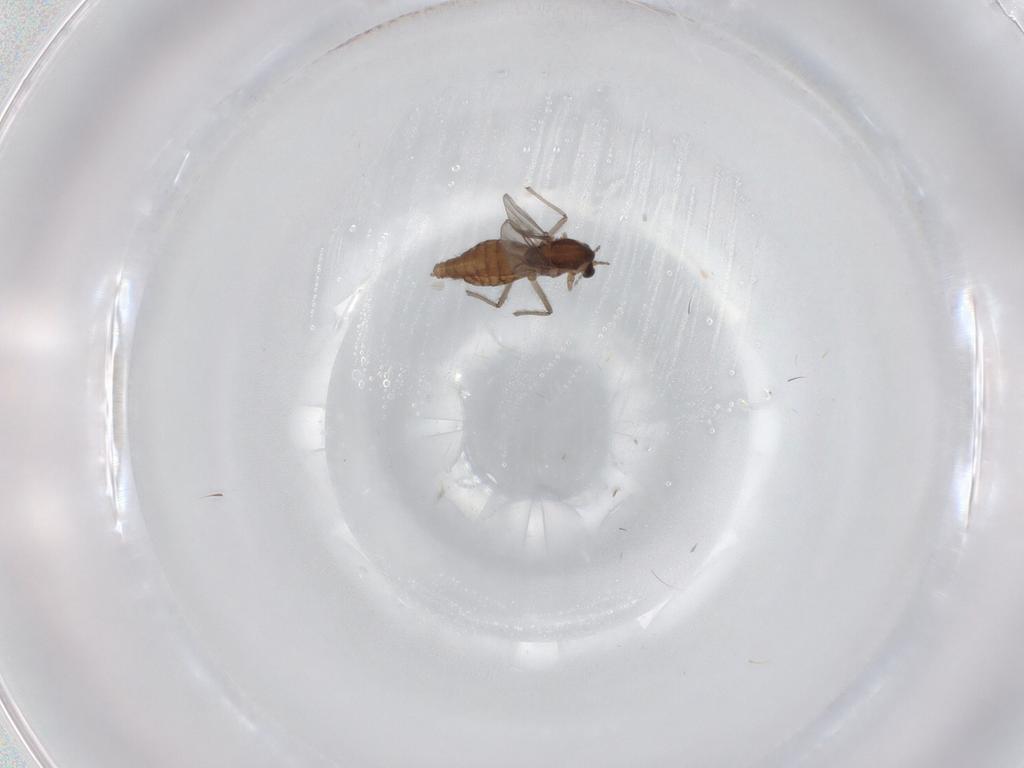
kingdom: Animalia
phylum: Arthropoda
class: Insecta
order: Diptera
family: Chironomidae
